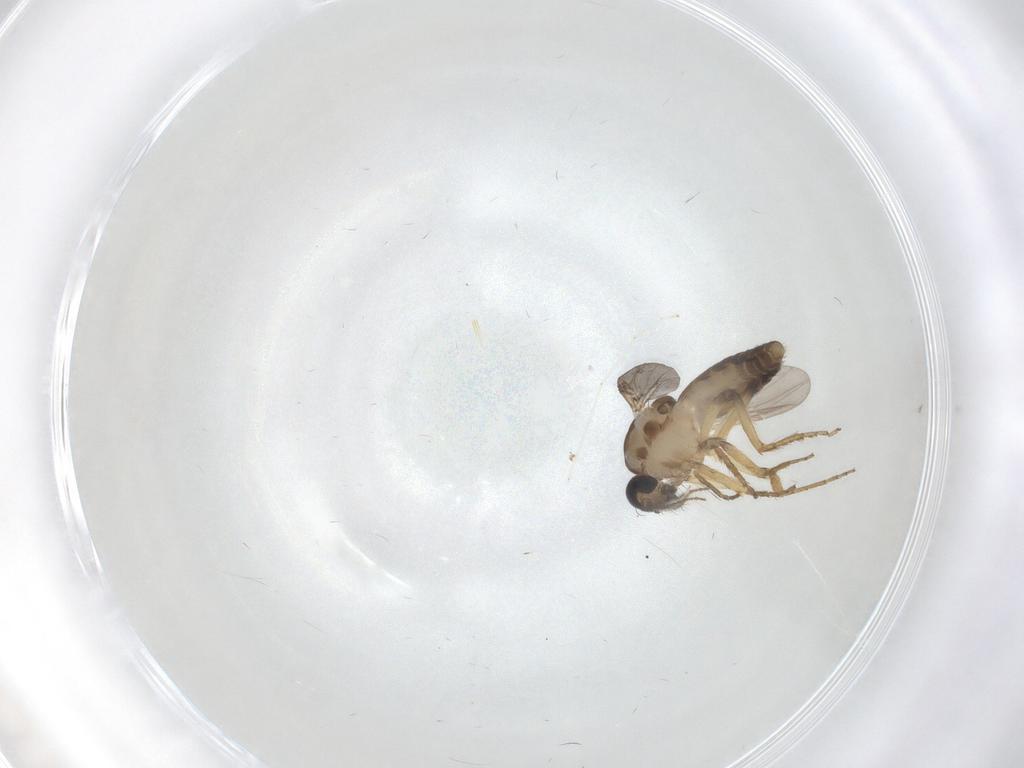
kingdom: Animalia
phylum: Arthropoda
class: Insecta
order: Diptera
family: Ceratopogonidae
